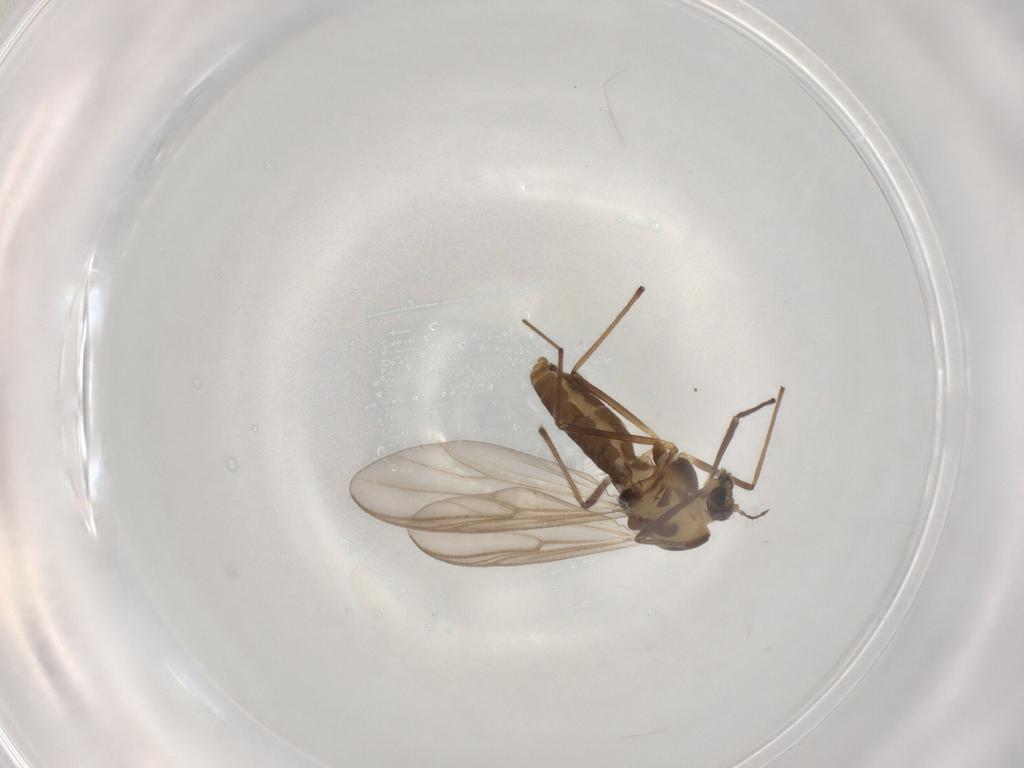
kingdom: Animalia
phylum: Arthropoda
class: Insecta
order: Diptera
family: Chironomidae
